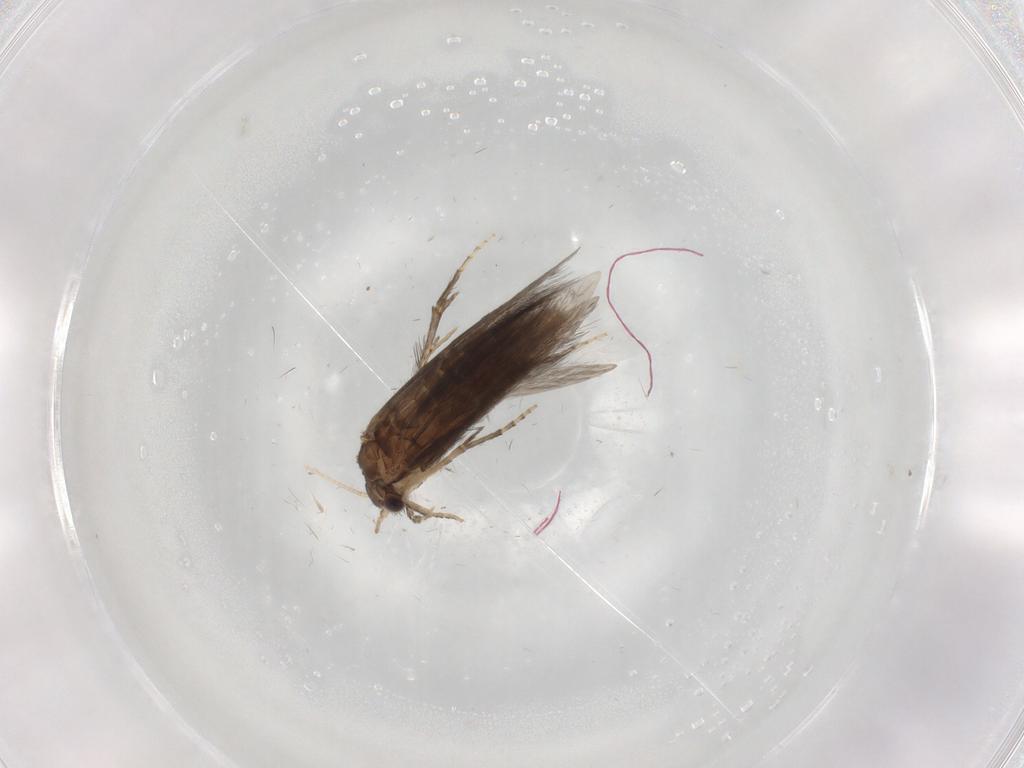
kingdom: Animalia
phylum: Arthropoda
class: Insecta
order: Trichoptera
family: Hydroptilidae
